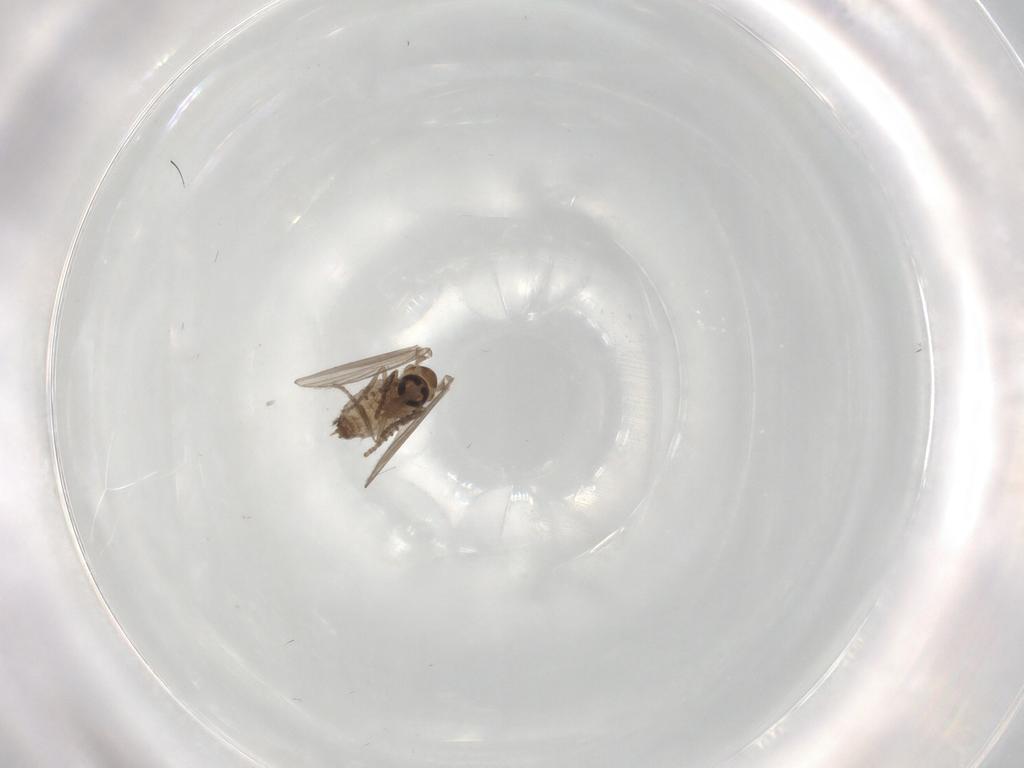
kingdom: Animalia
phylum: Arthropoda
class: Insecta
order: Diptera
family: Psychodidae
